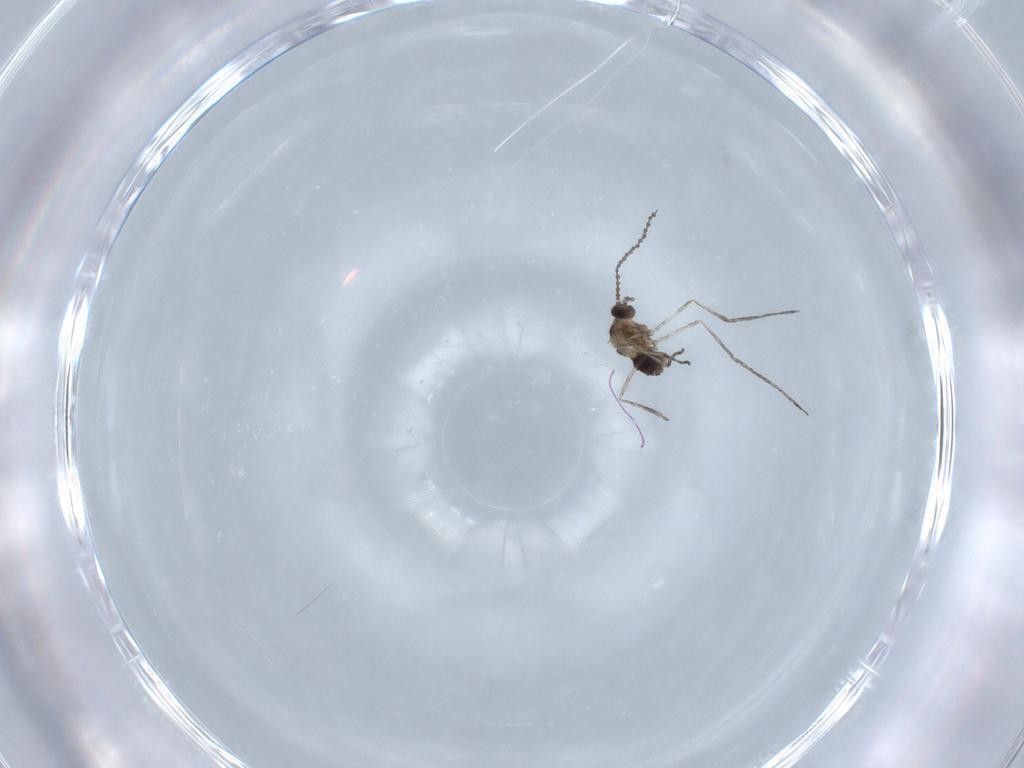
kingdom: Animalia
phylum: Arthropoda
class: Insecta
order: Diptera
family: Cecidomyiidae
